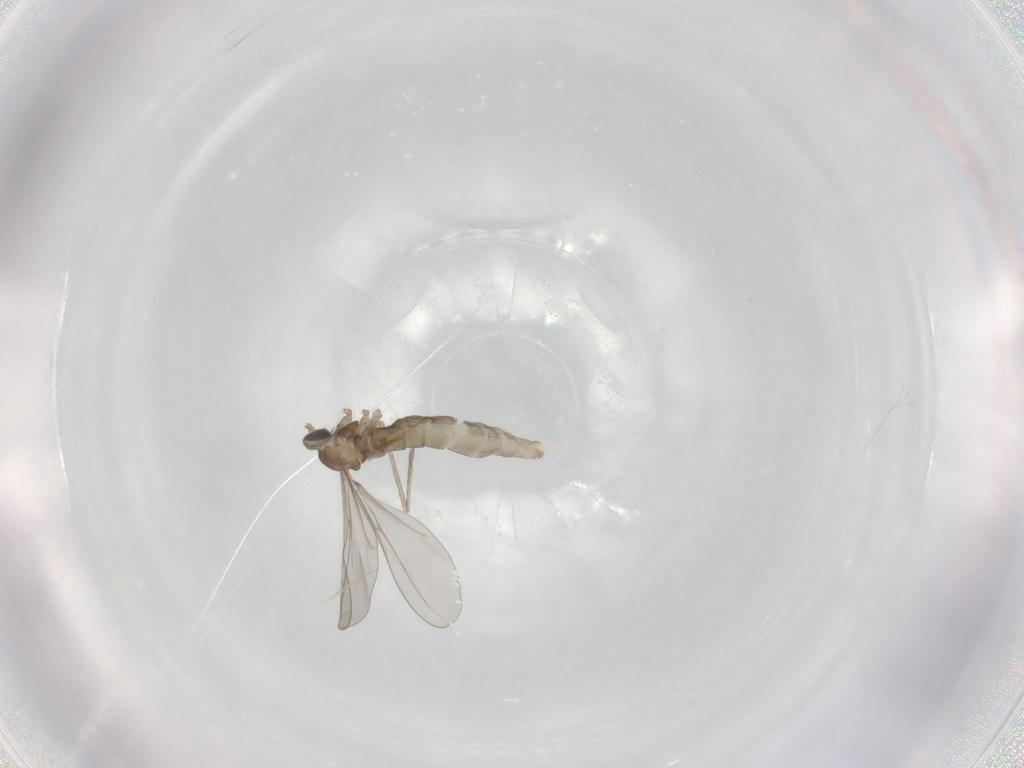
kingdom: Animalia
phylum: Arthropoda
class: Insecta
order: Diptera
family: Cecidomyiidae
